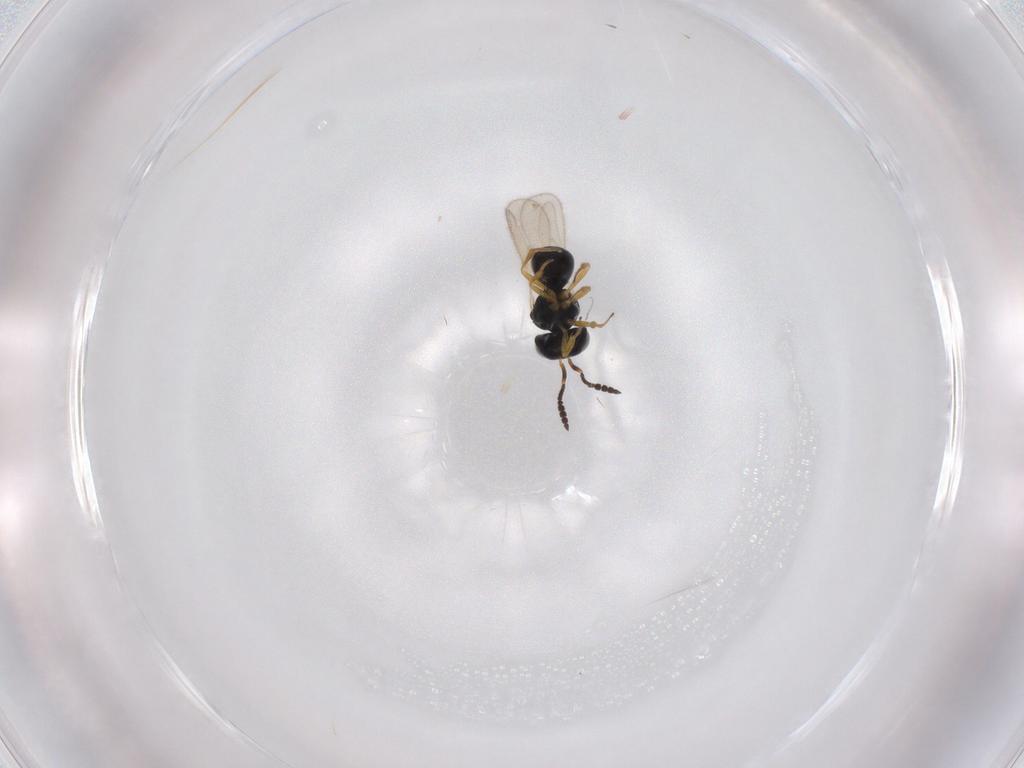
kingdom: Animalia
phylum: Arthropoda
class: Insecta
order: Hymenoptera
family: Scelionidae
